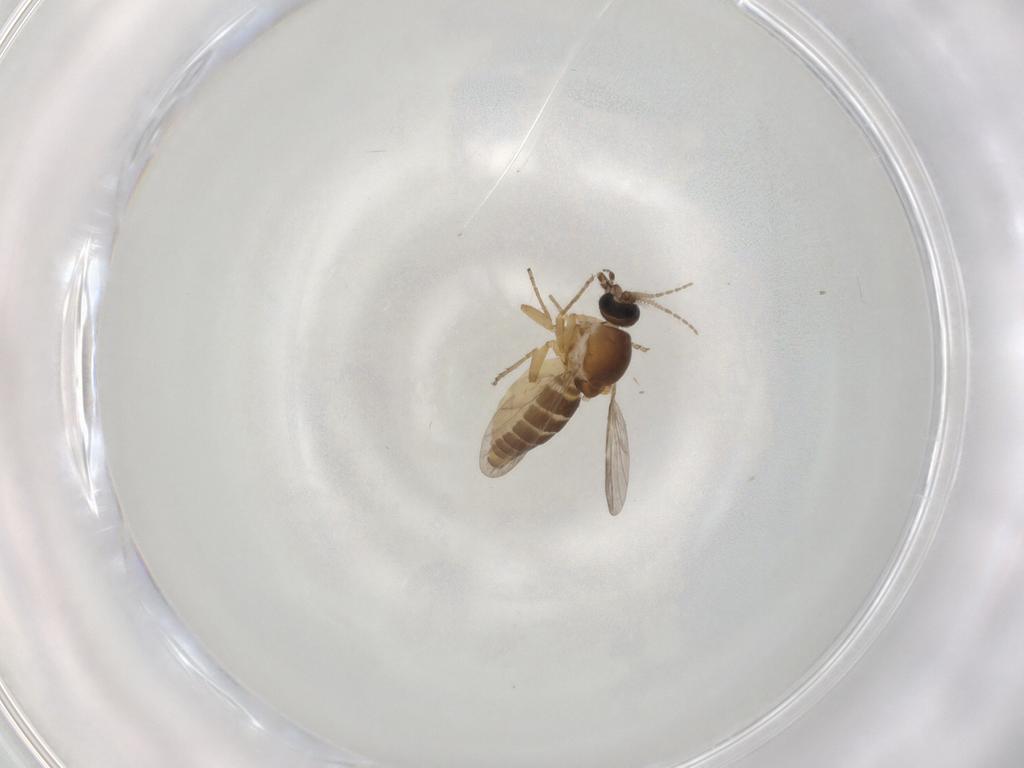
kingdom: Animalia
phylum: Arthropoda
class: Insecta
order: Diptera
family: Ceratopogonidae
